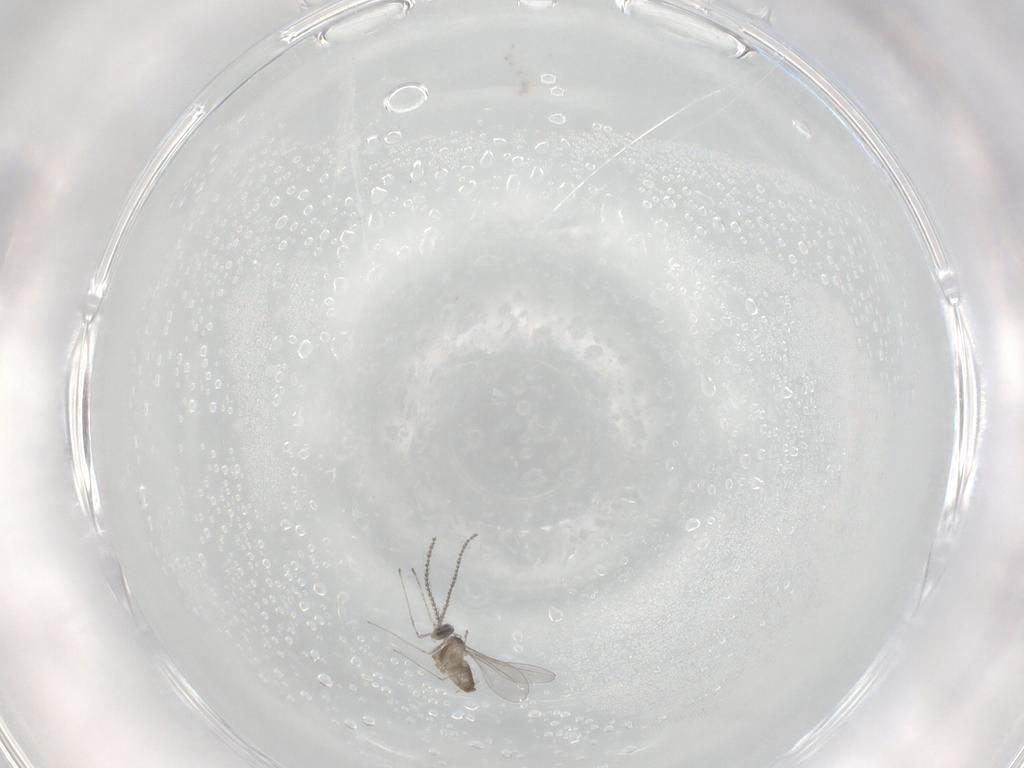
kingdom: Animalia
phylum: Arthropoda
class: Insecta
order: Diptera
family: Cecidomyiidae
